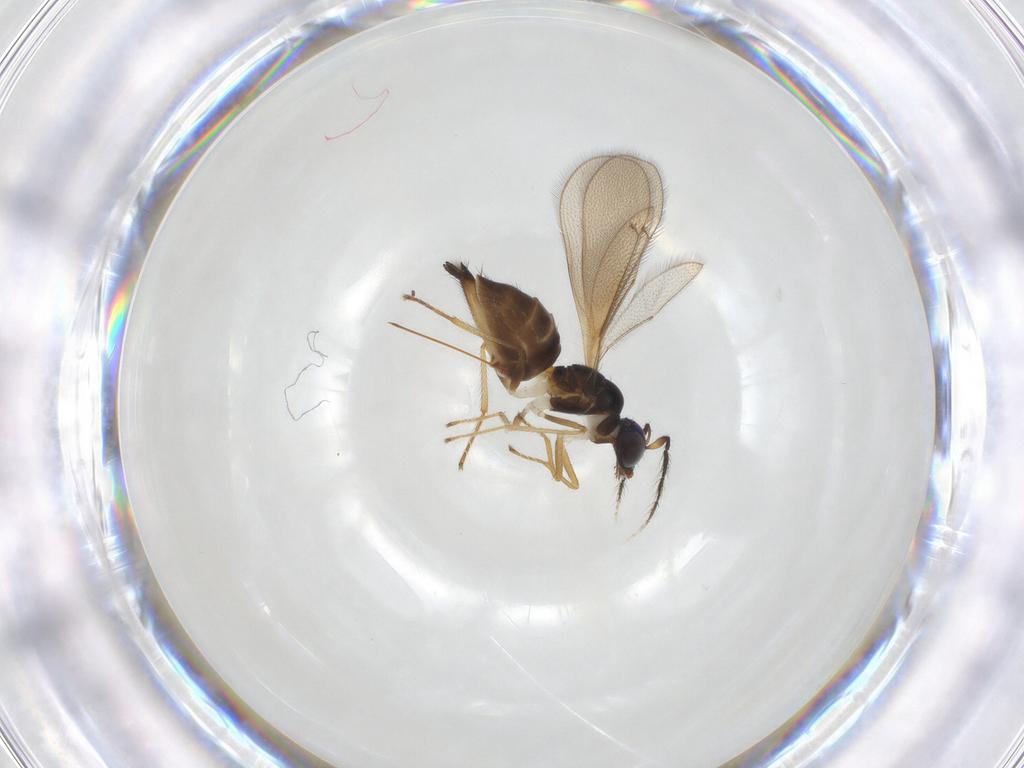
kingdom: Animalia
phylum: Arthropoda
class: Insecta
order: Hymenoptera
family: Eulophidae
